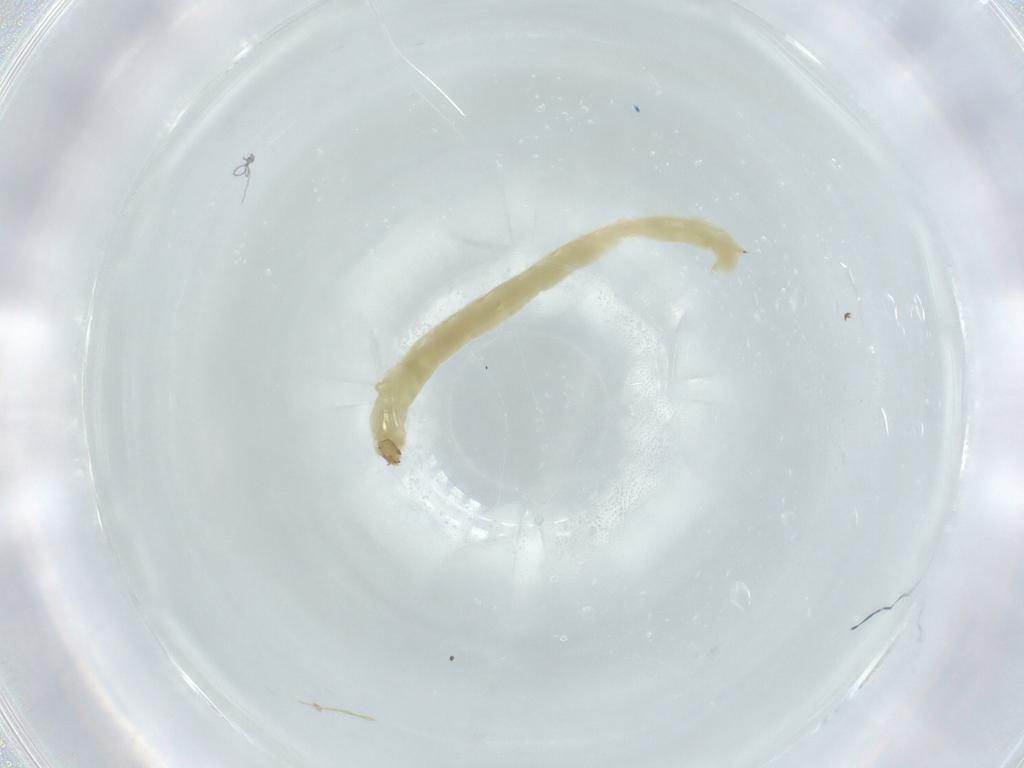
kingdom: Animalia
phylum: Arthropoda
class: Insecta
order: Diptera
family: Chironomidae
